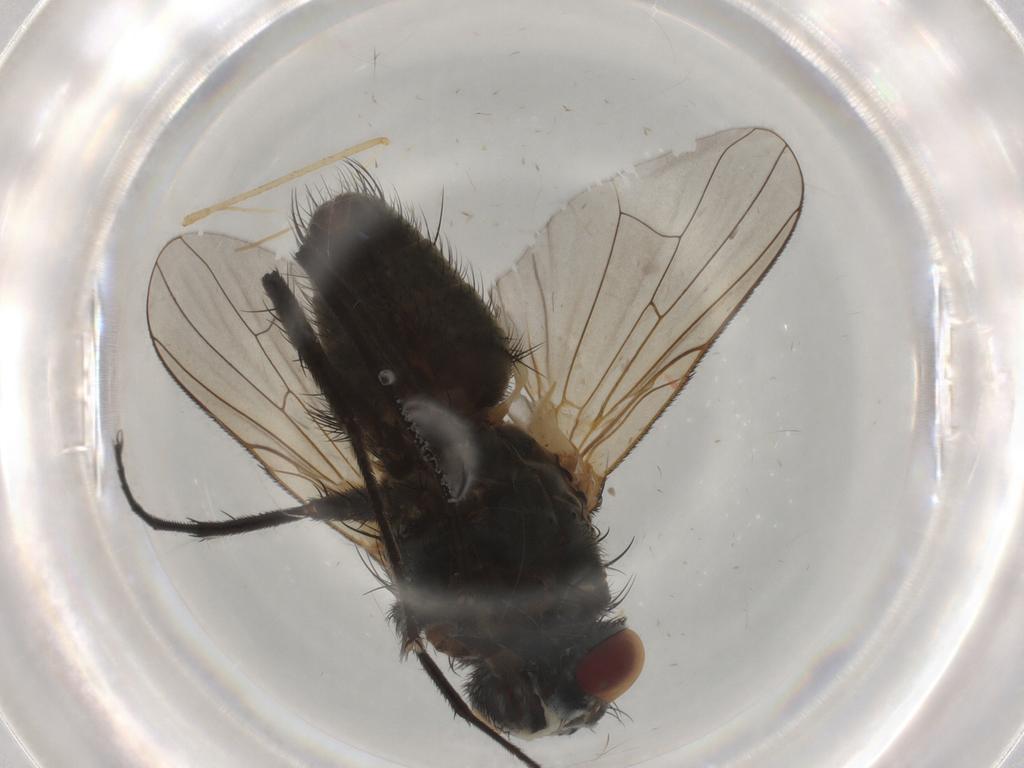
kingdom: Animalia
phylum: Arthropoda
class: Insecta
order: Diptera
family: Muscidae
